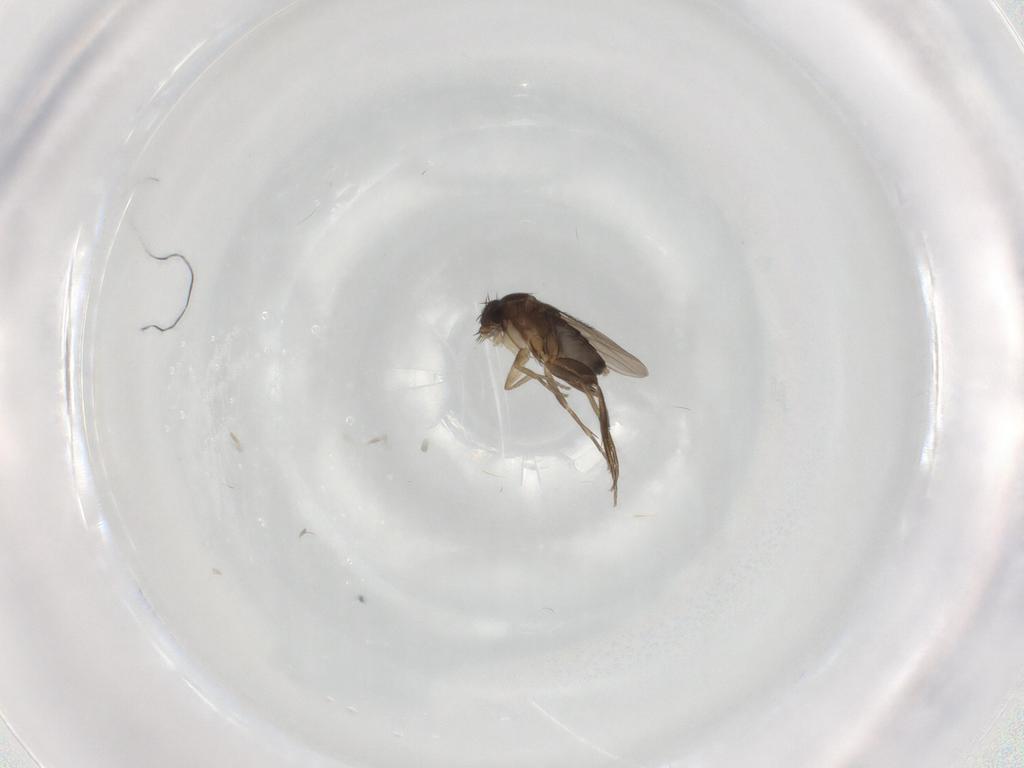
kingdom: Animalia
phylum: Arthropoda
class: Insecta
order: Diptera
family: Phoridae
